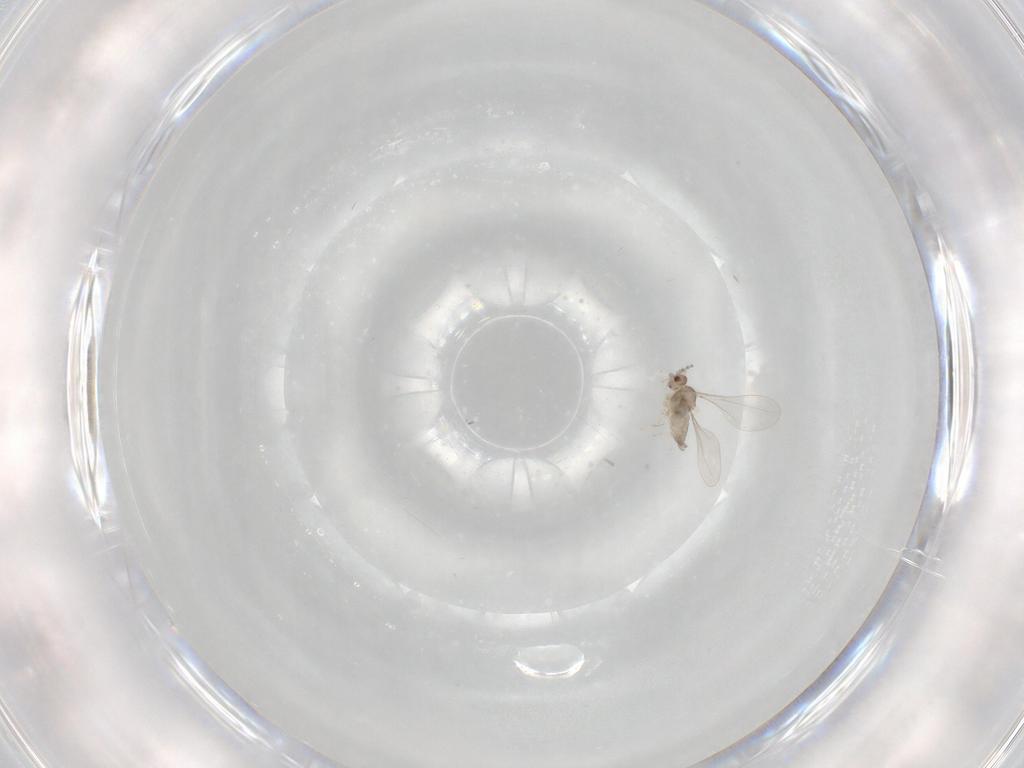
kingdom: Animalia
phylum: Arthropoda
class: Insecta
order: Diptera
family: Cecidomyiidae
